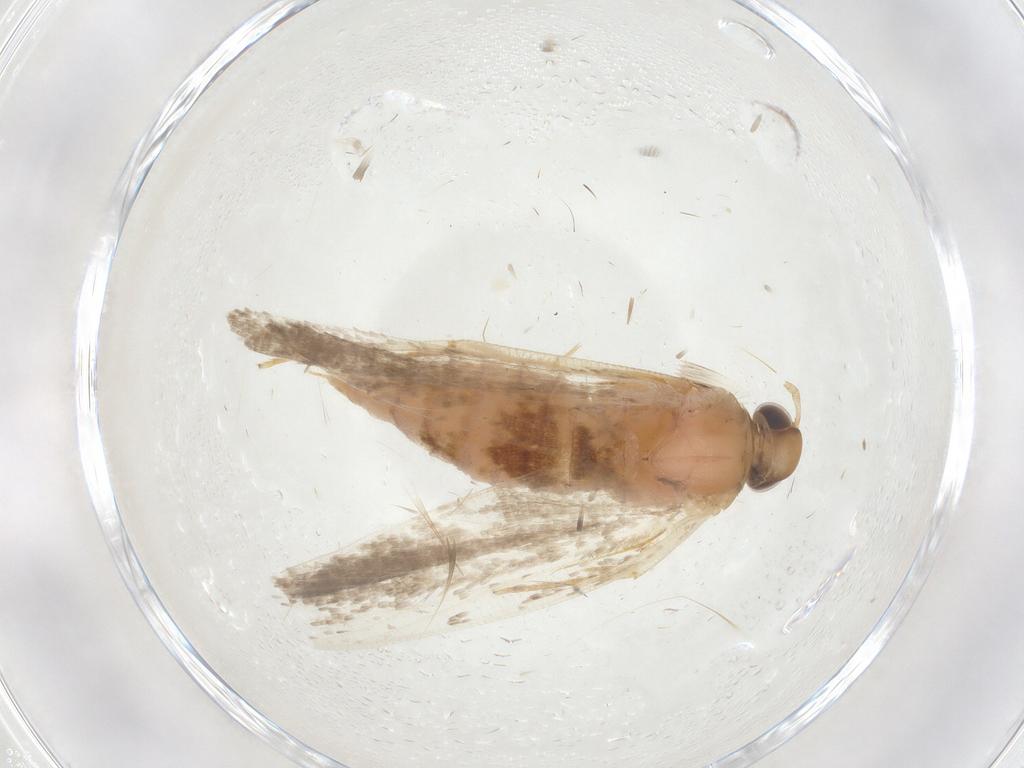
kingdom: Animalia
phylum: Arthropoda
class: Insecta
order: Lepidoptera
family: Gelechiidae
